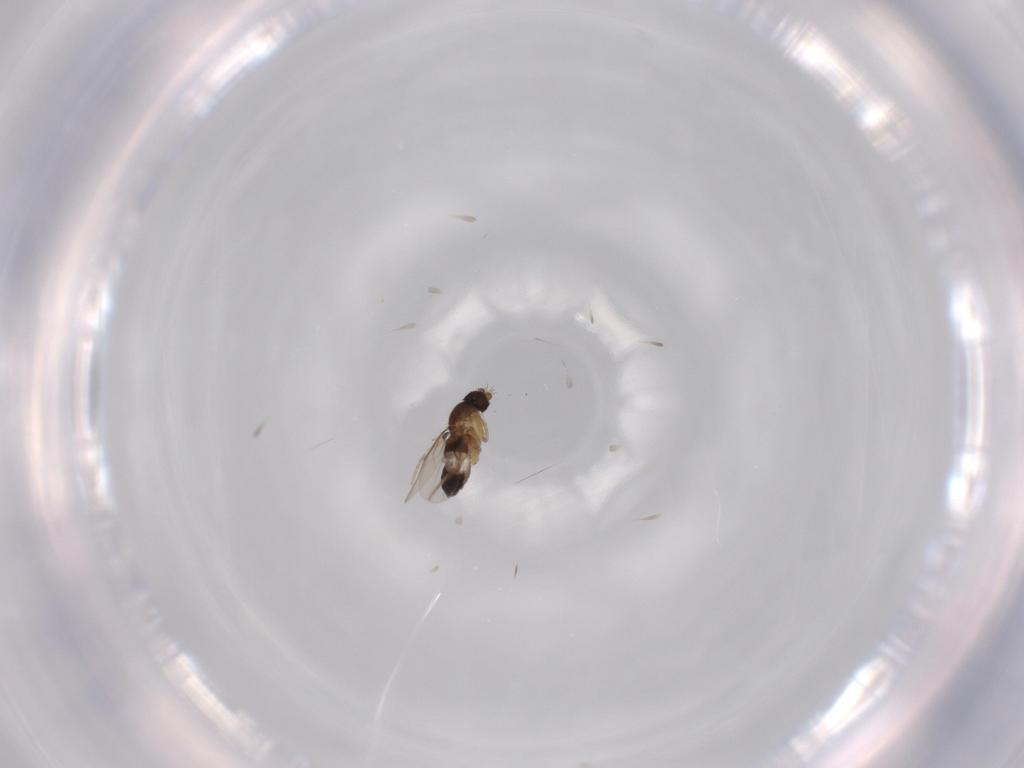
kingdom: Animalia
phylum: Arthropoda
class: Insecta
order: Diptera
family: Phoridae
